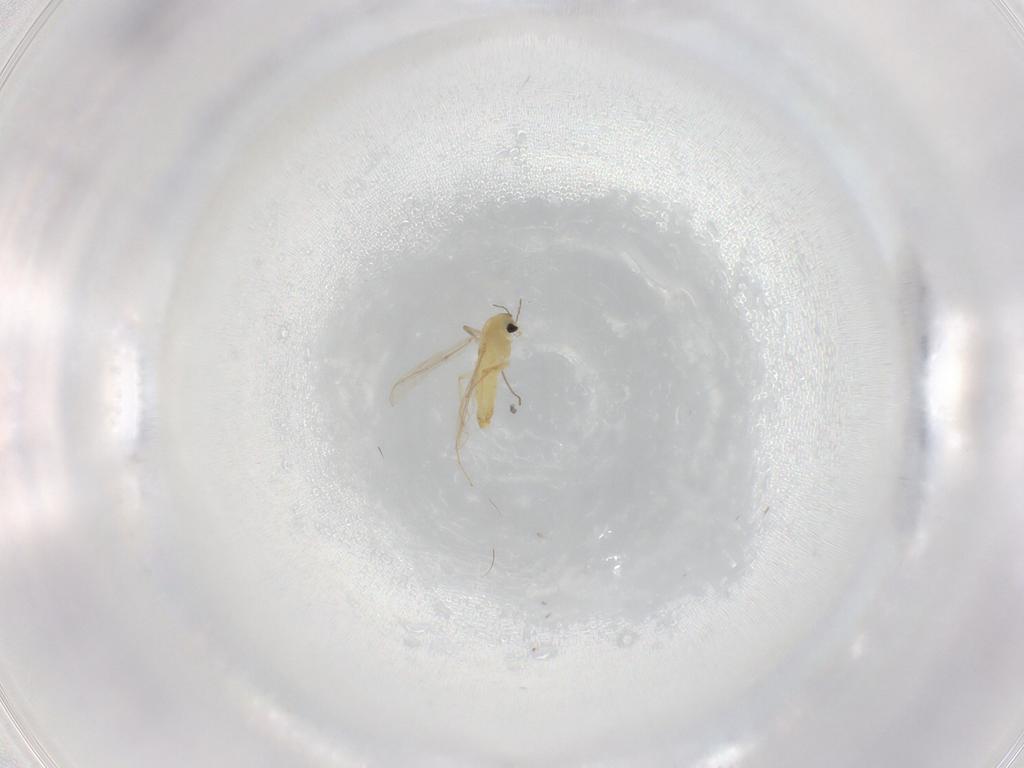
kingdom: Animalia
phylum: Arthropoda
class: Insecta
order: Diptera
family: Chironomidae
